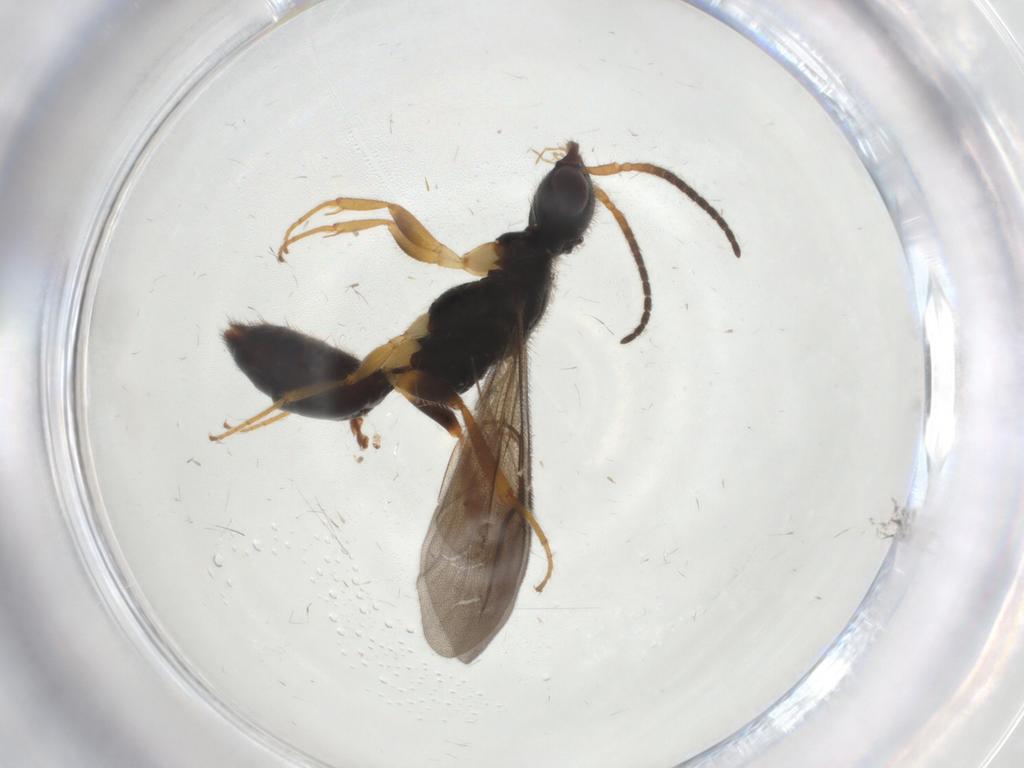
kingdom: Animalia
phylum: Arthropoda
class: Insecta
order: Hymenoptera
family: Bethylidae
